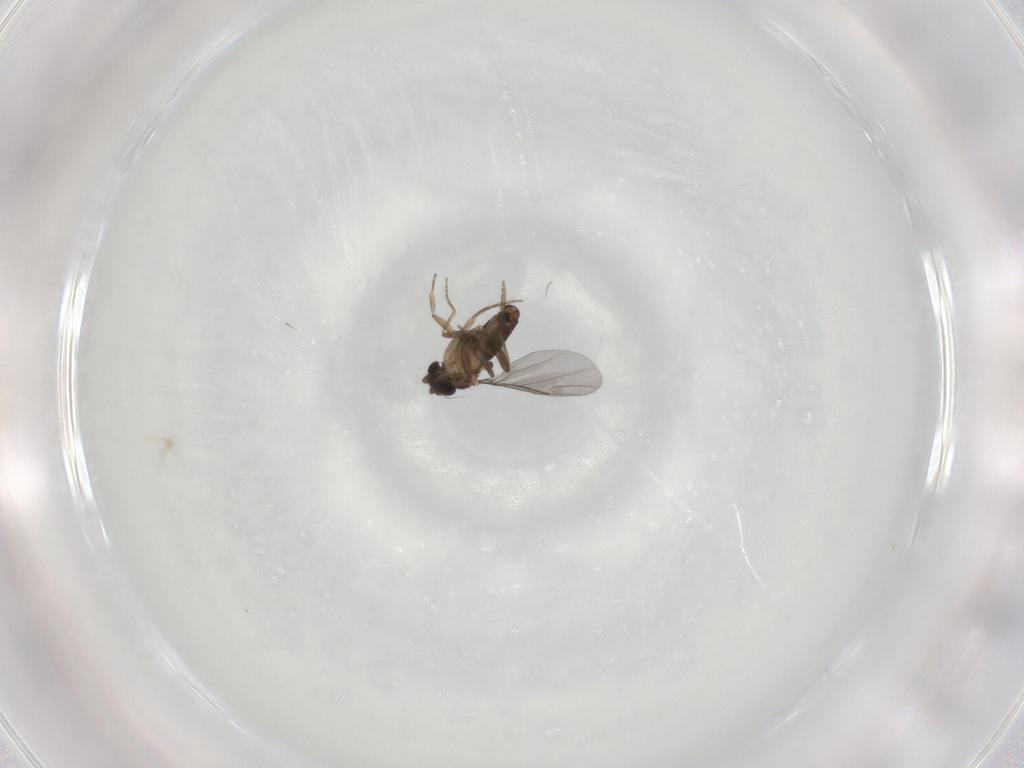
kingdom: Animalia
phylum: Arthropoda
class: Insecta
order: Diptera
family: Phoridae
